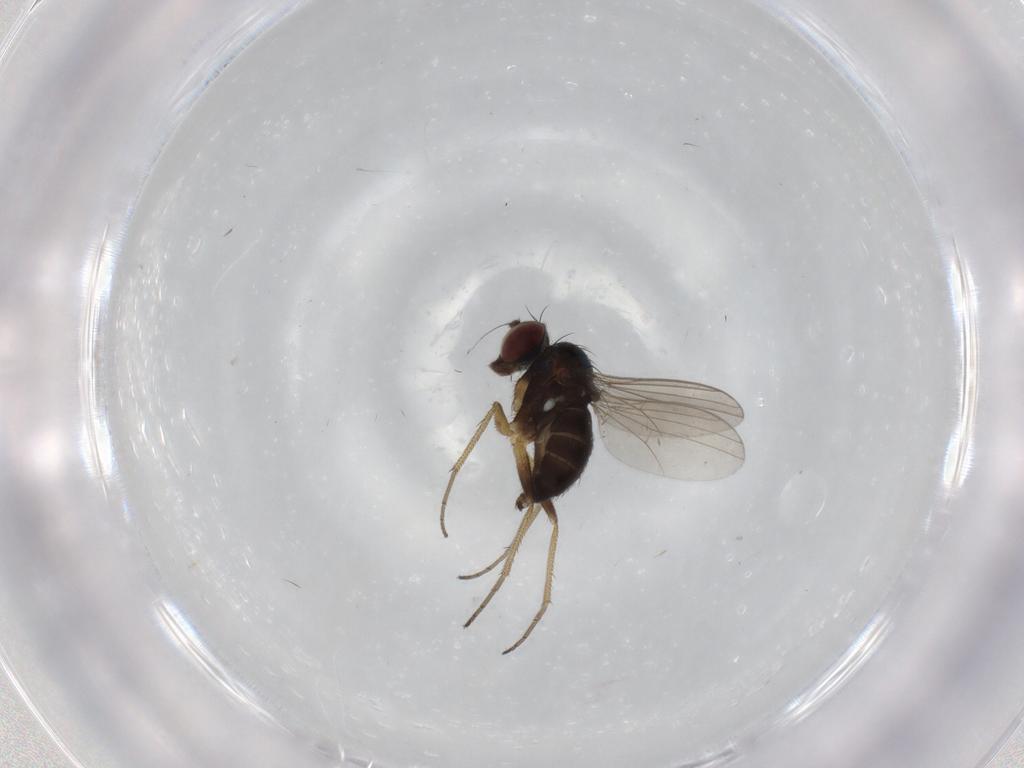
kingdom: Animalia
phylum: Arthropoda
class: Insecta
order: Diptera
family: Dolichopodidae
